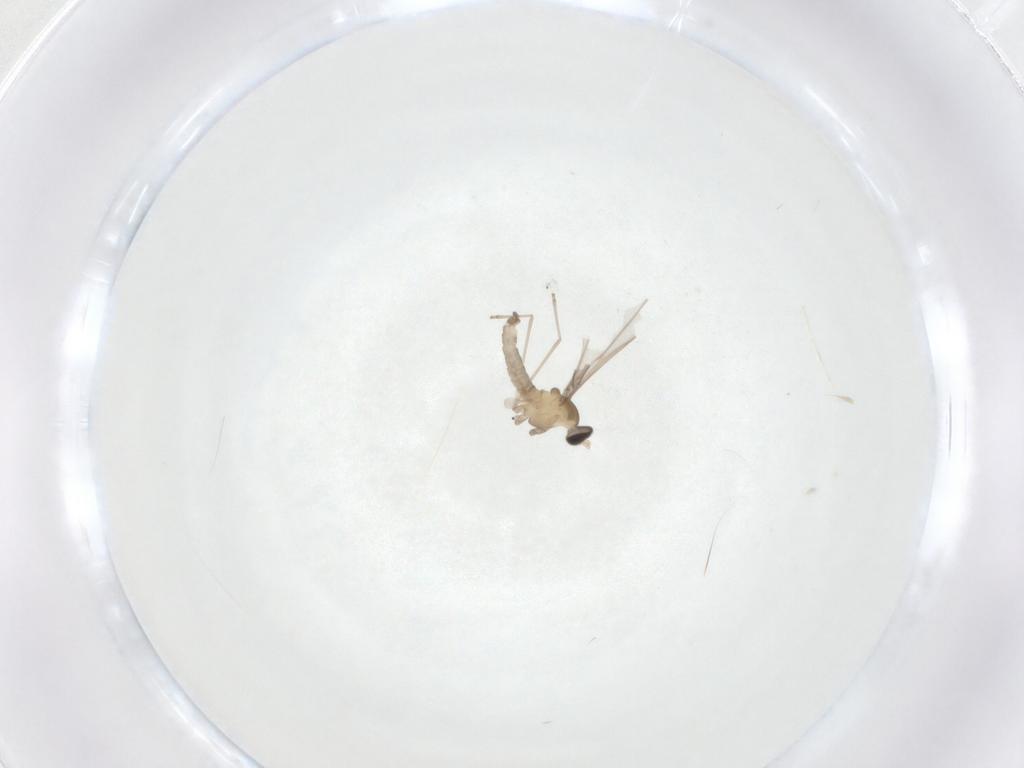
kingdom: Animalia
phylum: Arthropoda
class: Insecta
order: Diptera
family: Cecidomyiidae
